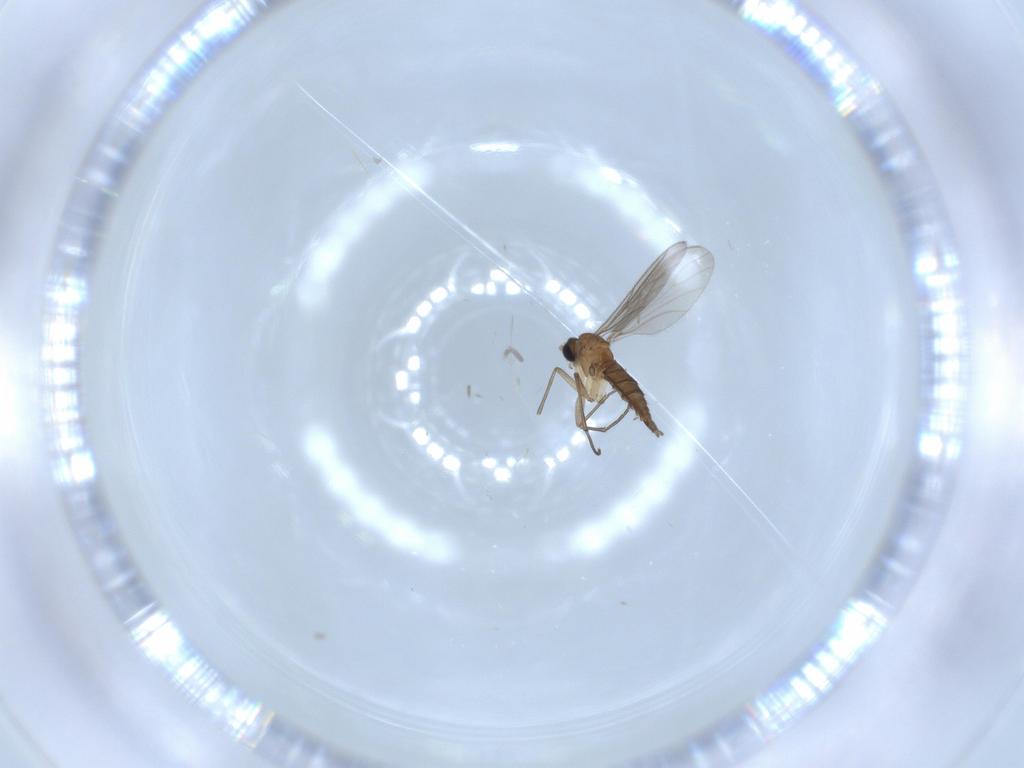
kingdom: Animalia
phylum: Arthropoda
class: Insecta
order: Diptera
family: Sciaridae
